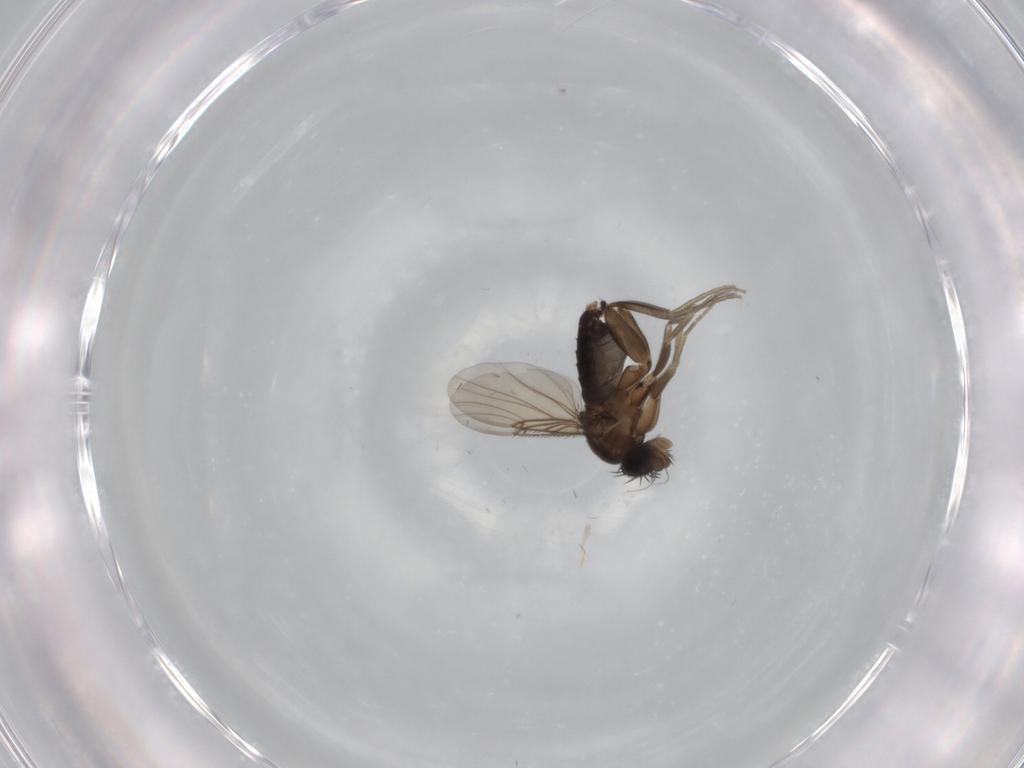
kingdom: Animalia
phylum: Arthropoda
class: Insecta
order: Diptera
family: Phoridae
